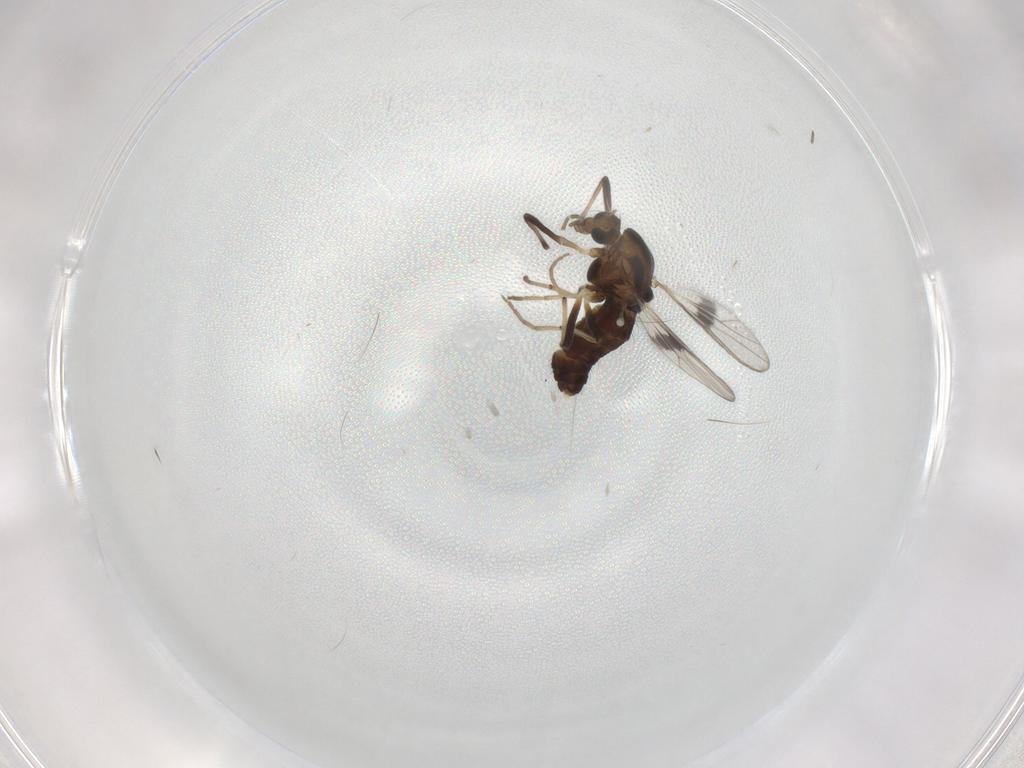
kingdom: Animalia
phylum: Arthropoda
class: Insecta
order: Diptera
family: Chironomidae
